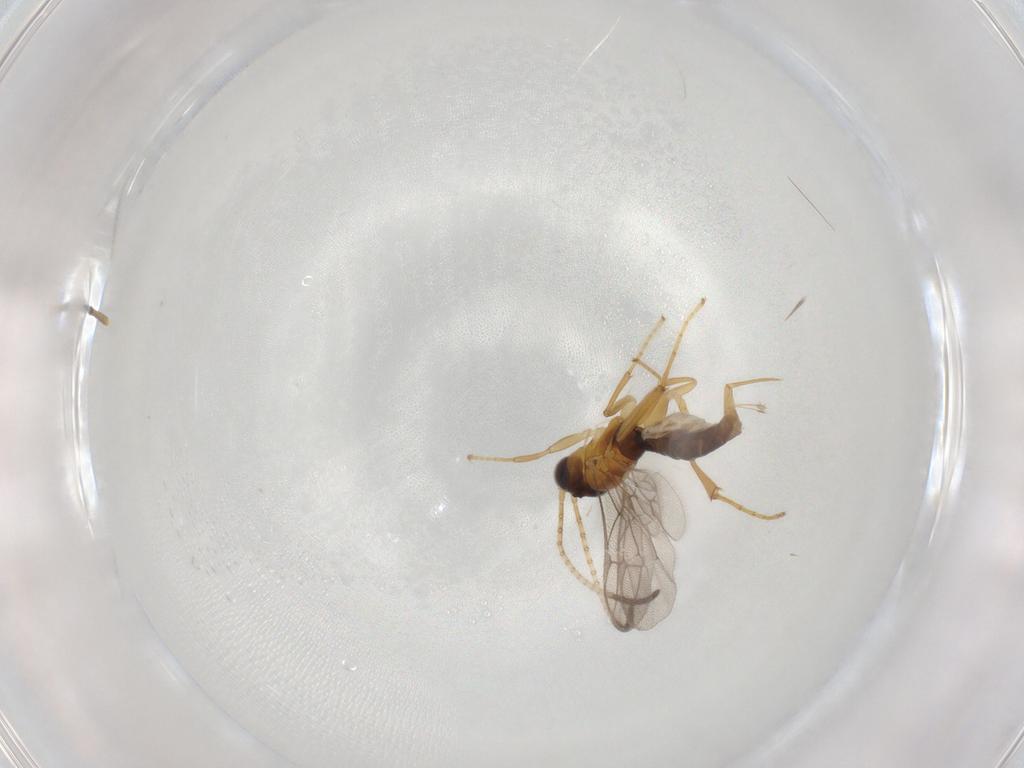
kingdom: Animalia
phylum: Arthropoda
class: Insecta
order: Hymenoptera
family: Ichneumonidae
